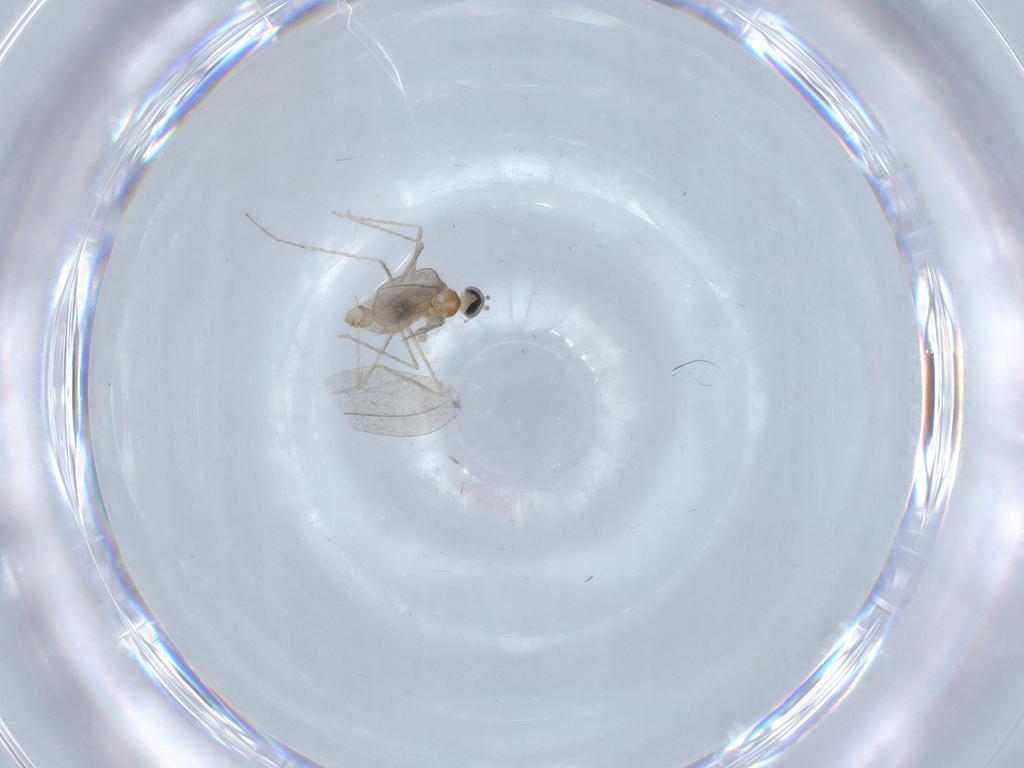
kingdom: Animalia
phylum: Arthropoda
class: Insecta
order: Diptera
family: Cecidomyiidae
